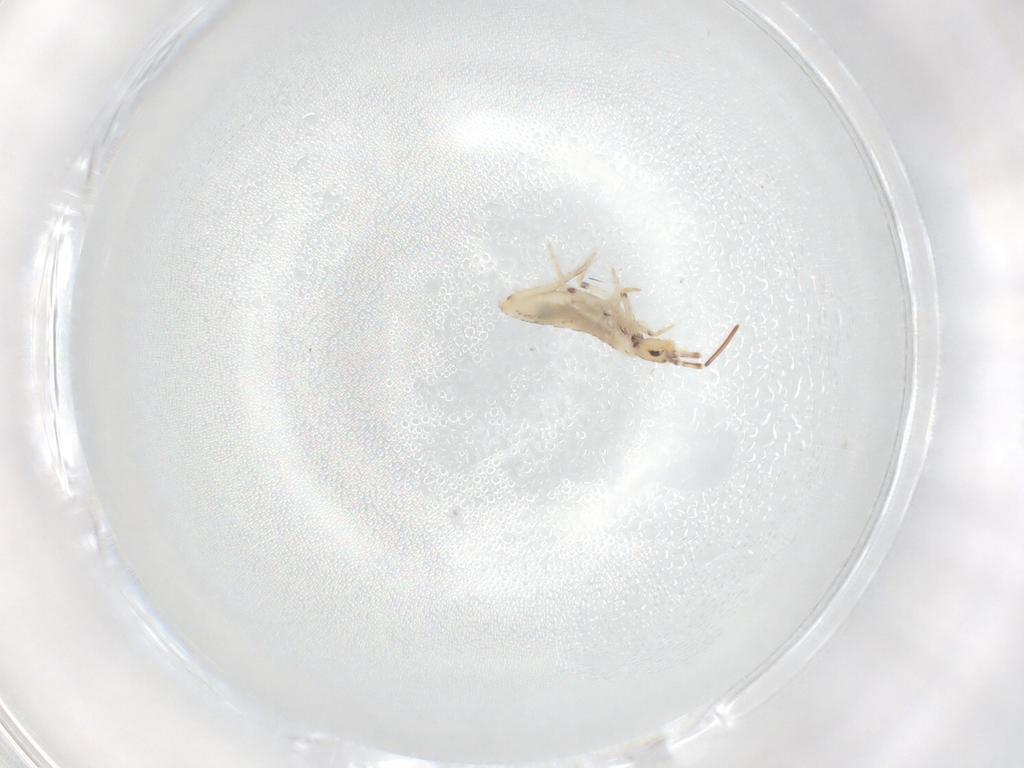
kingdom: Animalia
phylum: Arthropoda
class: Collembola
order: Entomobryomorpha
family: Entomobryidae
